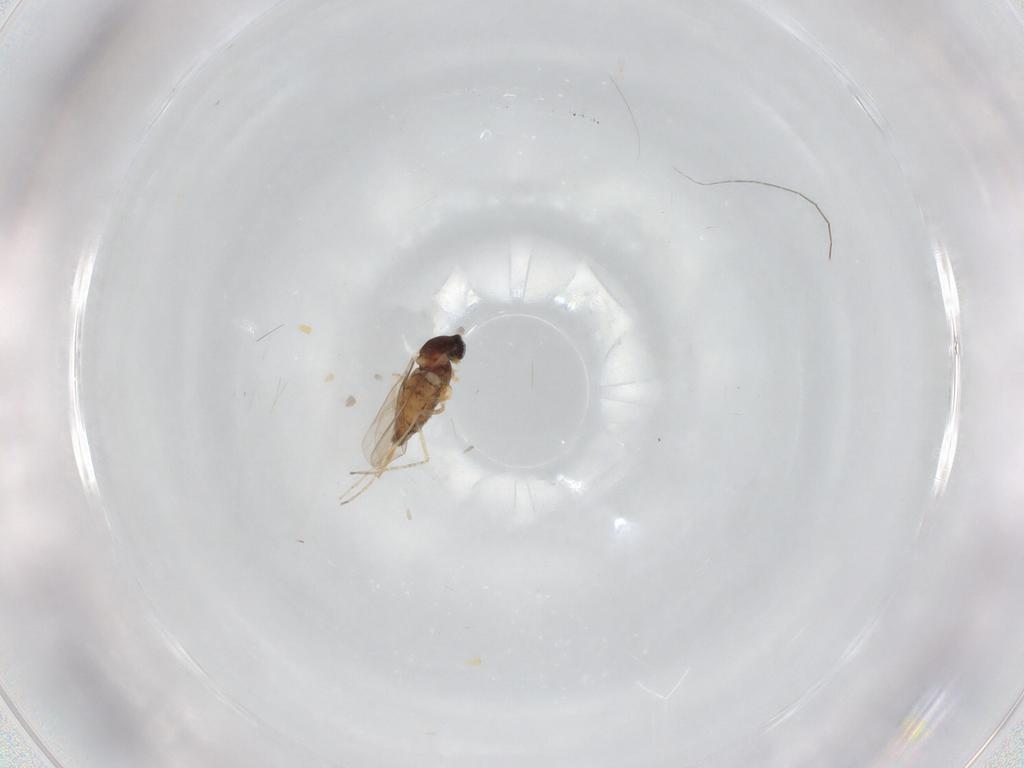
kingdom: Animalia
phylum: Arthropoda
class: Insecta
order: Diptera
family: Cecidomyiidae
